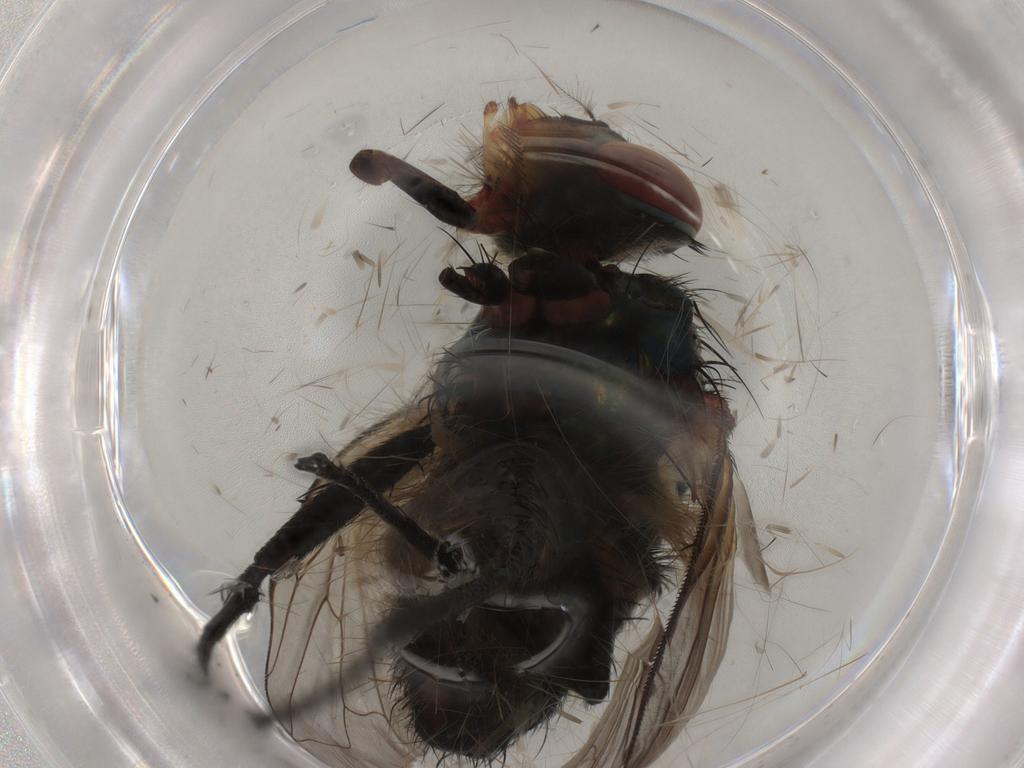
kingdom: Animalia
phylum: Arthropoda
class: Insecta
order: Diptera
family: Calliphoridae
